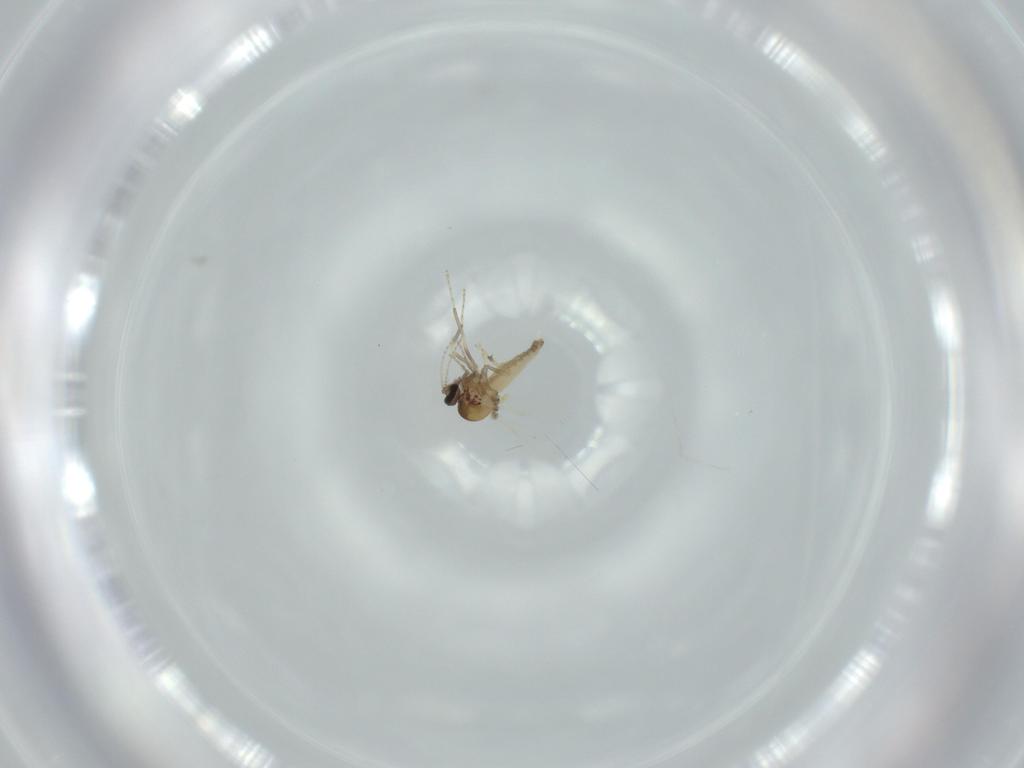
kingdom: Animalia
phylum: Arthropoda
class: Insecta
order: Diptera
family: Ceratopogonidae
